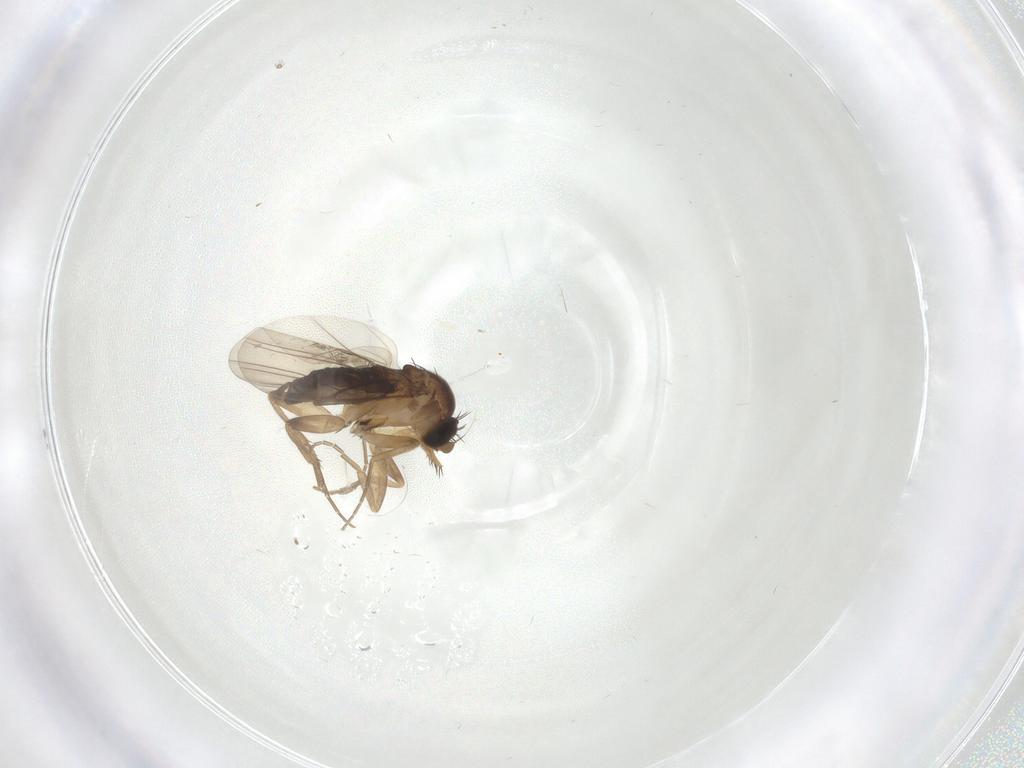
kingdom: Animalia
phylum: Arthropoda
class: Insecta
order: Diptera
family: Phoridae
